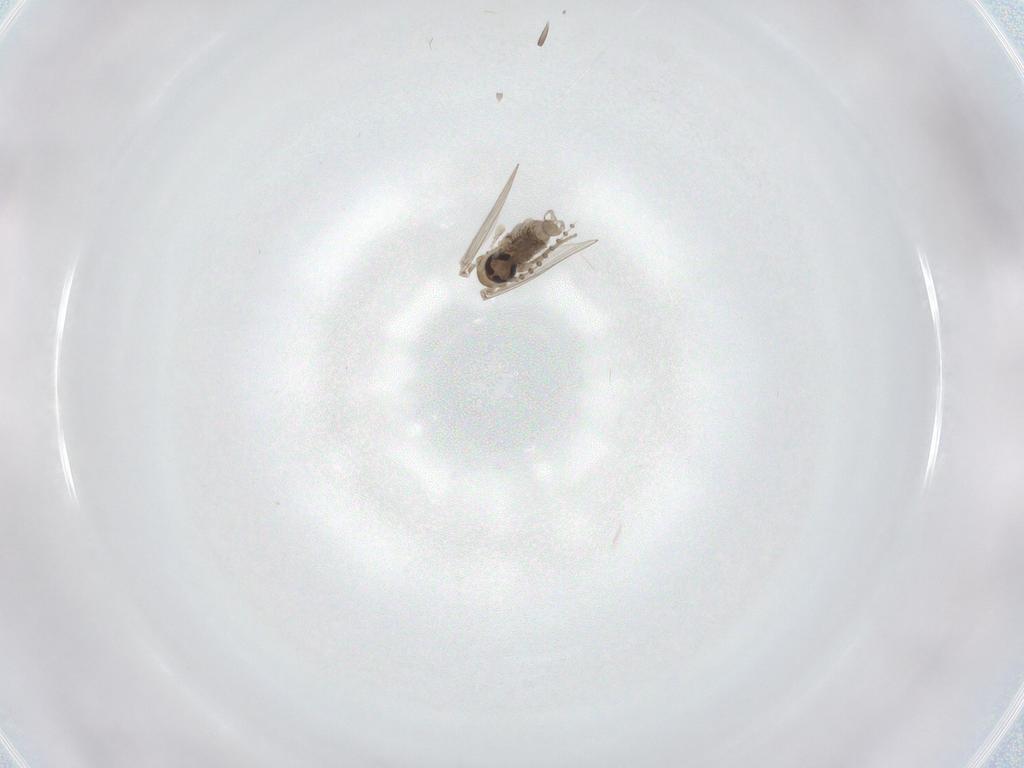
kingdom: Animalia
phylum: Arthropoda
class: Insecta
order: Diptera
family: Psychodidae
